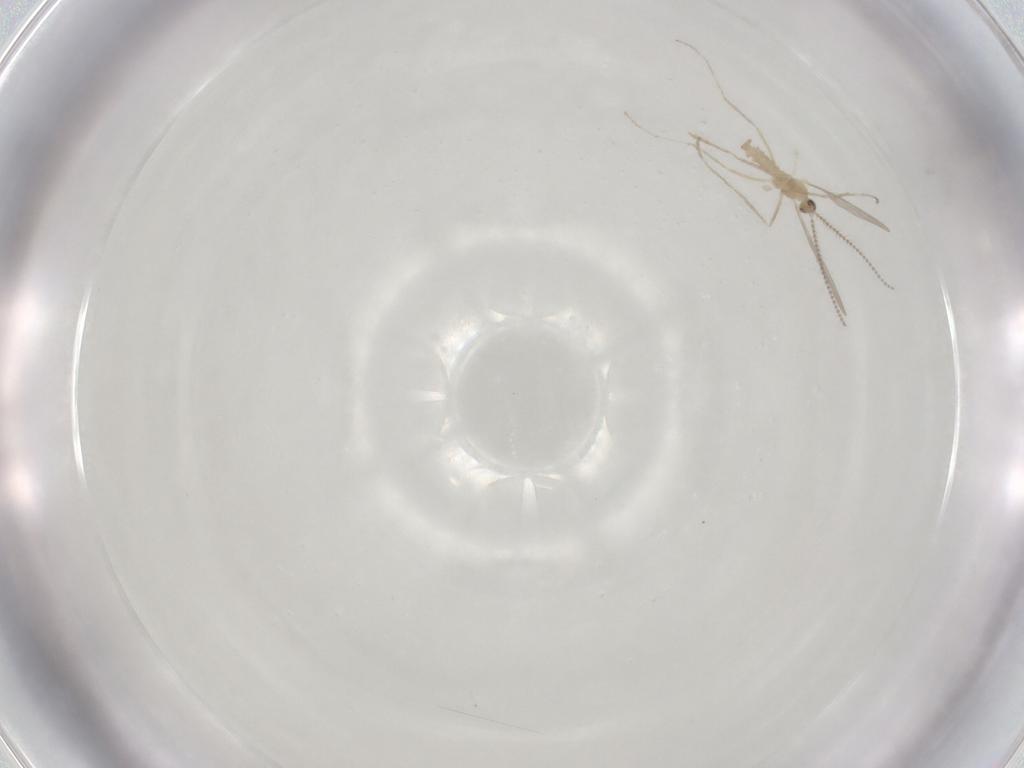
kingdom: Animalia
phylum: Arthropoda
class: Insecta
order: Diptera
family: Cecidomyiidae
